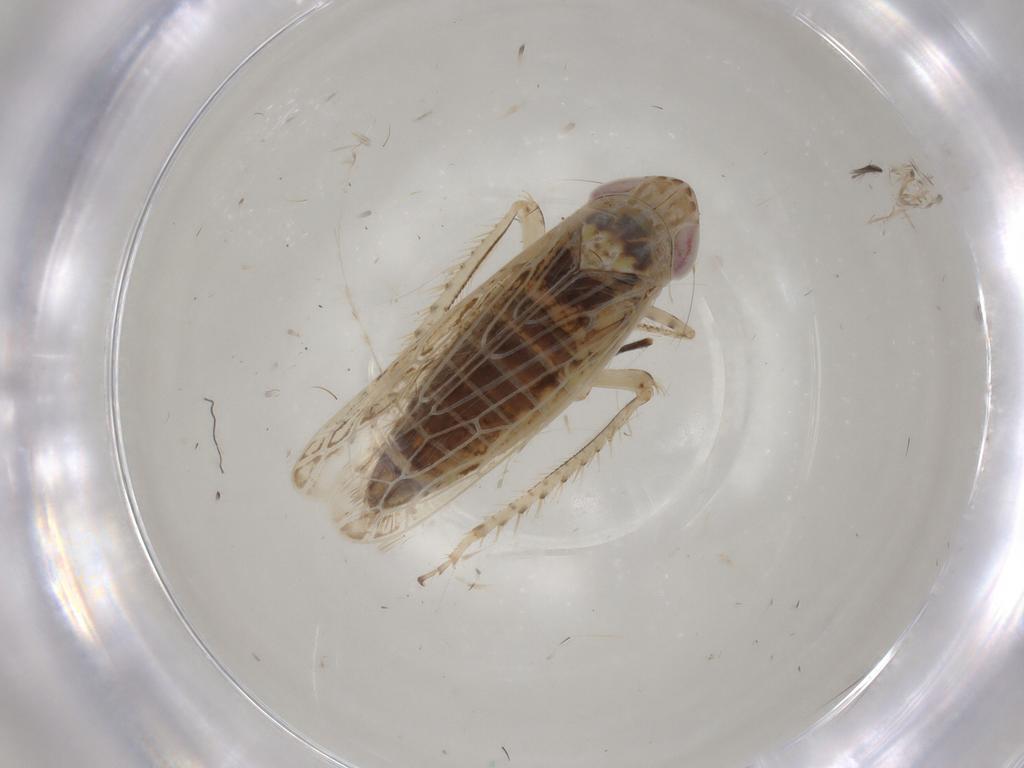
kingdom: Animalia
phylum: Arthropoda
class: Insecta
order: Hemiptera
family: Cicadellidae
